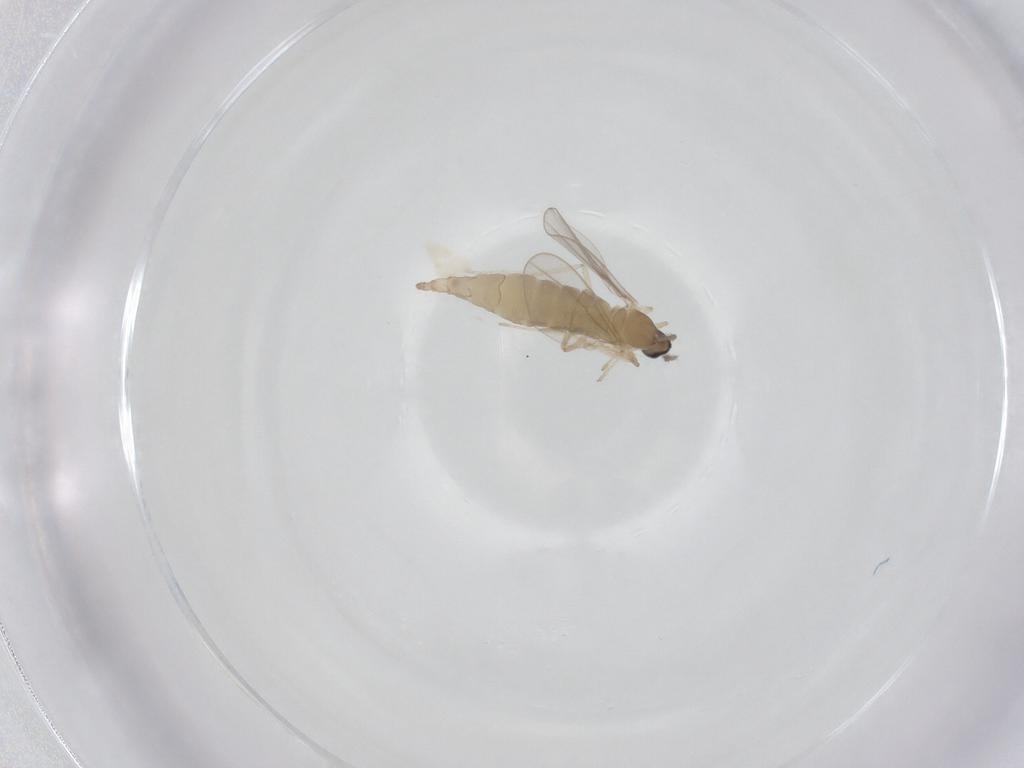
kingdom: Animalia
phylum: Arthropoda
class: Insecta
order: Diptera
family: Cecidomyiidae
